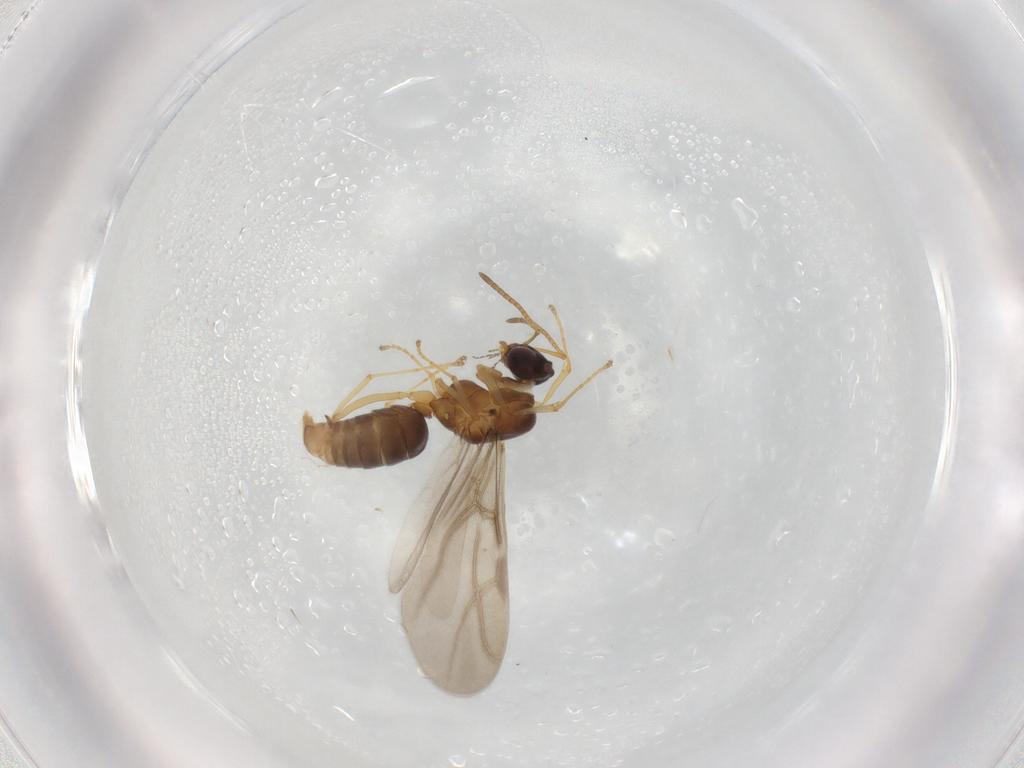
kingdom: Animalia
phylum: Arthropoda
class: Insecta
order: Hymenoptera
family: Formicidae
